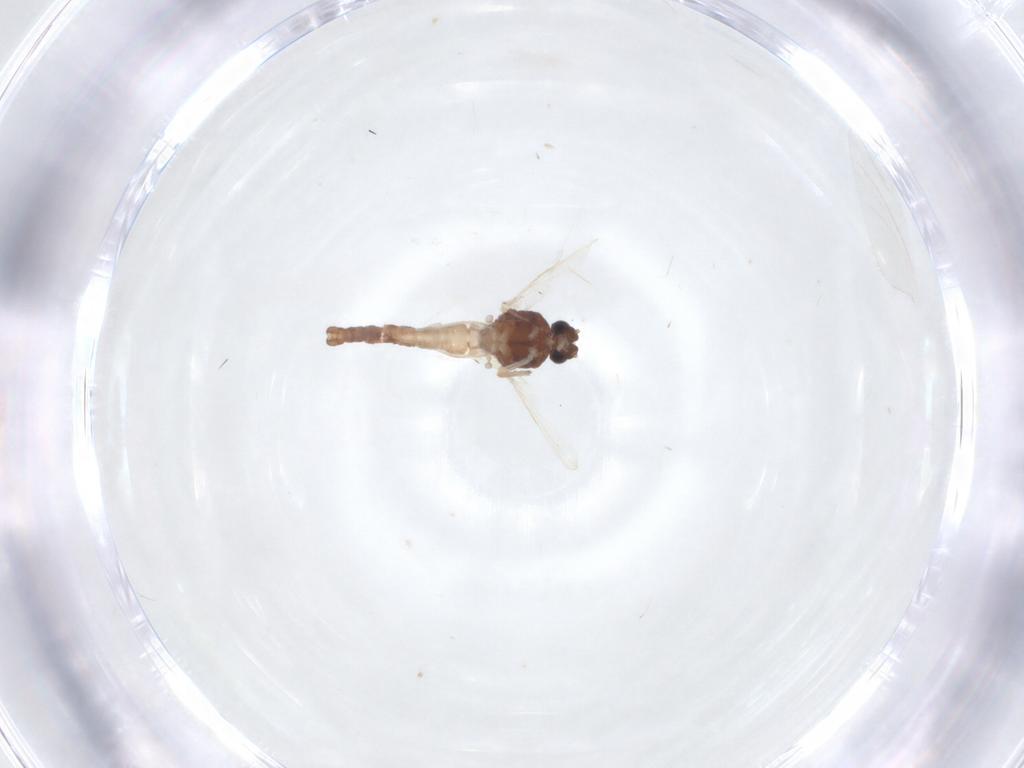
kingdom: Animalia
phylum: Arthropoda
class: Insecta
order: Diptera
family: Ceratopogonidae
